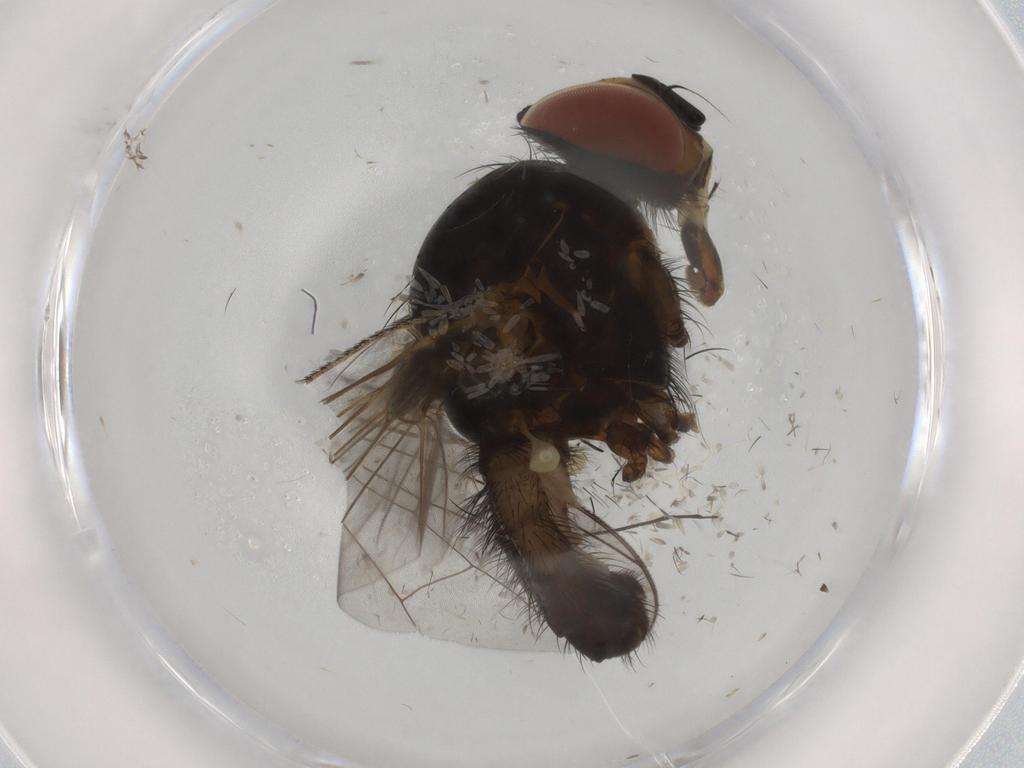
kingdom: Animalia
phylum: Arthropoda
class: Insecta
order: Diptera
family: Anthomyiidae
